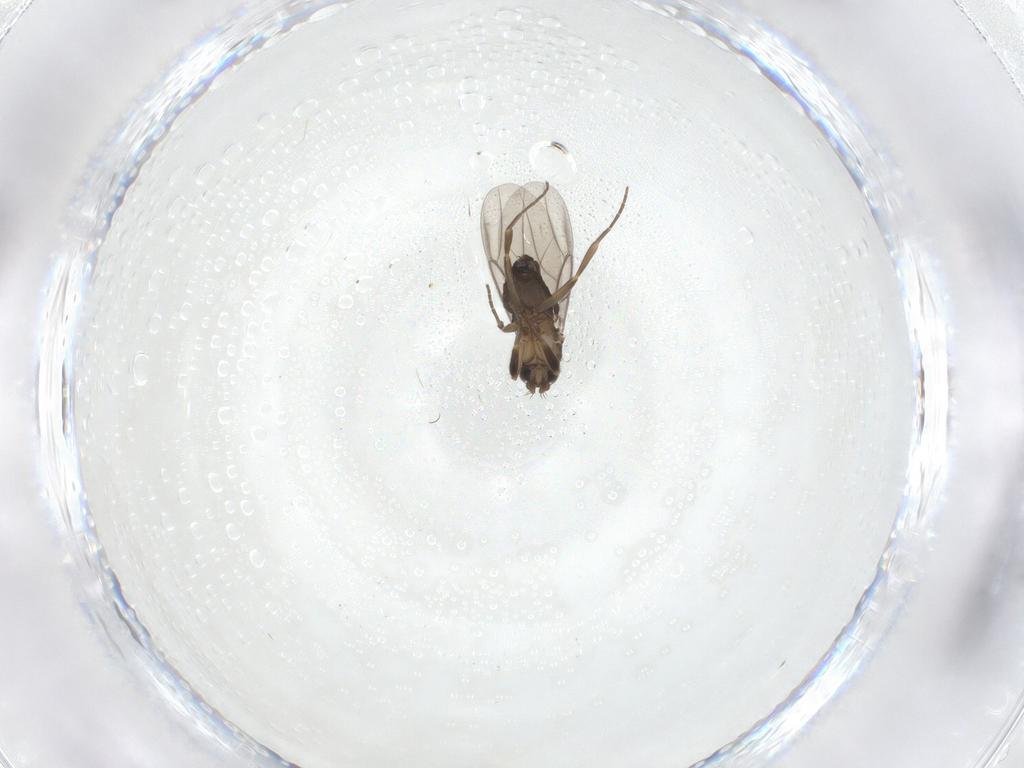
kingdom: Animalia
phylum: Arthropoda
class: Insecta
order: Diptera
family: Phoridae
